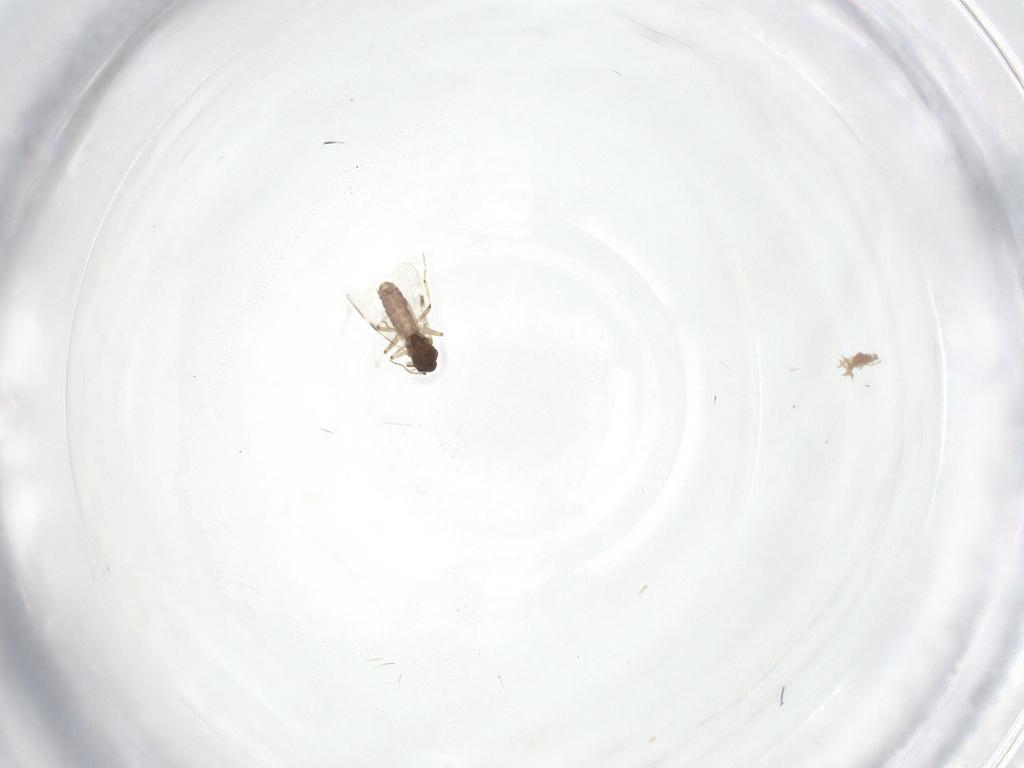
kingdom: Animalia
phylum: Arthropoda
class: Insecta
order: Diptera
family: Phoridae
